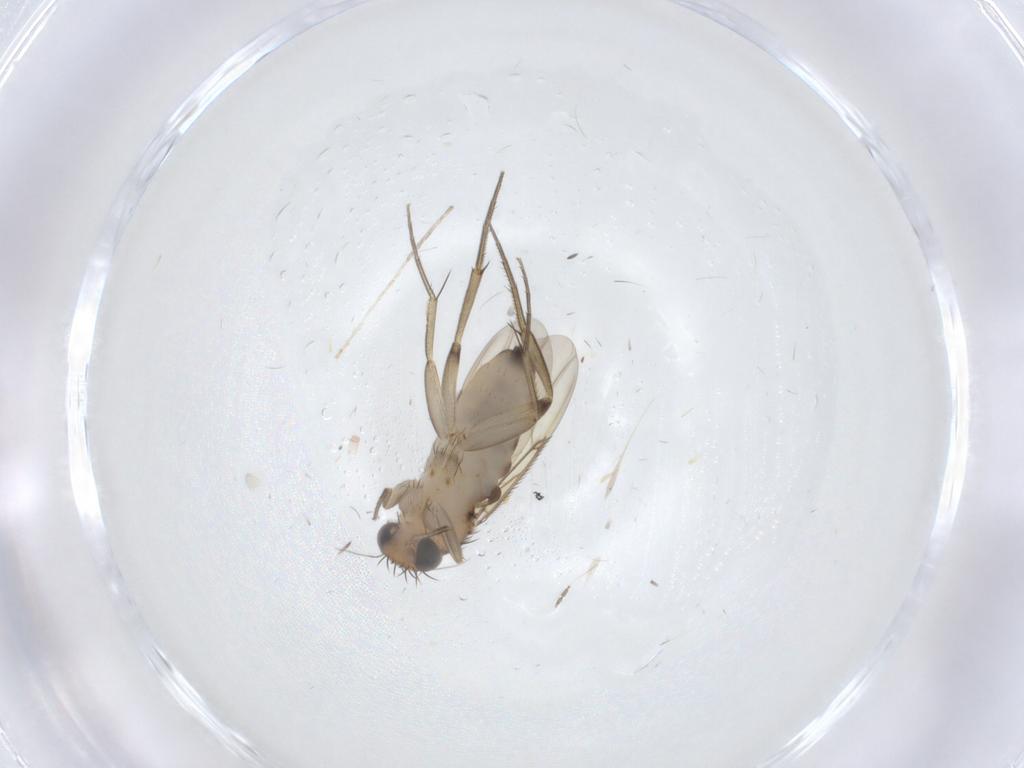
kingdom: Animalia
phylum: Arthropoda
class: Insecta
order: Diptera
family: Phoridae
